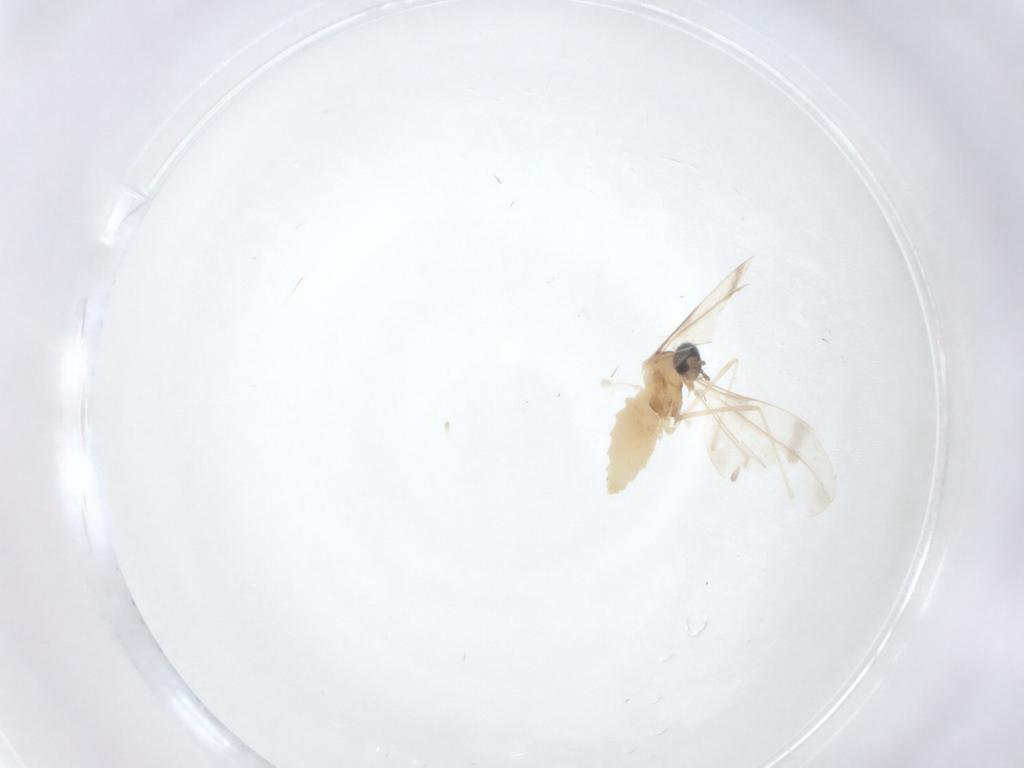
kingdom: Animalia
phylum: Arthropoda
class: Insecta
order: Diptera
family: Cecidomyiidae
